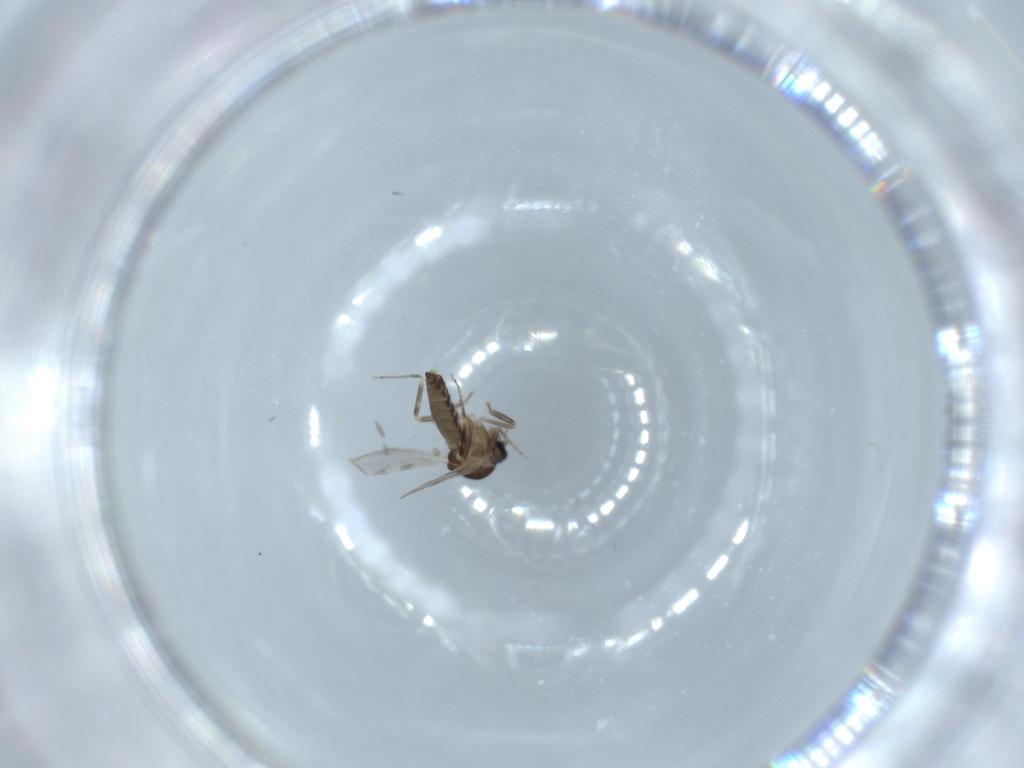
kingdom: Animalia
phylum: Arthropoda
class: Insecta
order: Diptera
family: Ceratopogonidae
